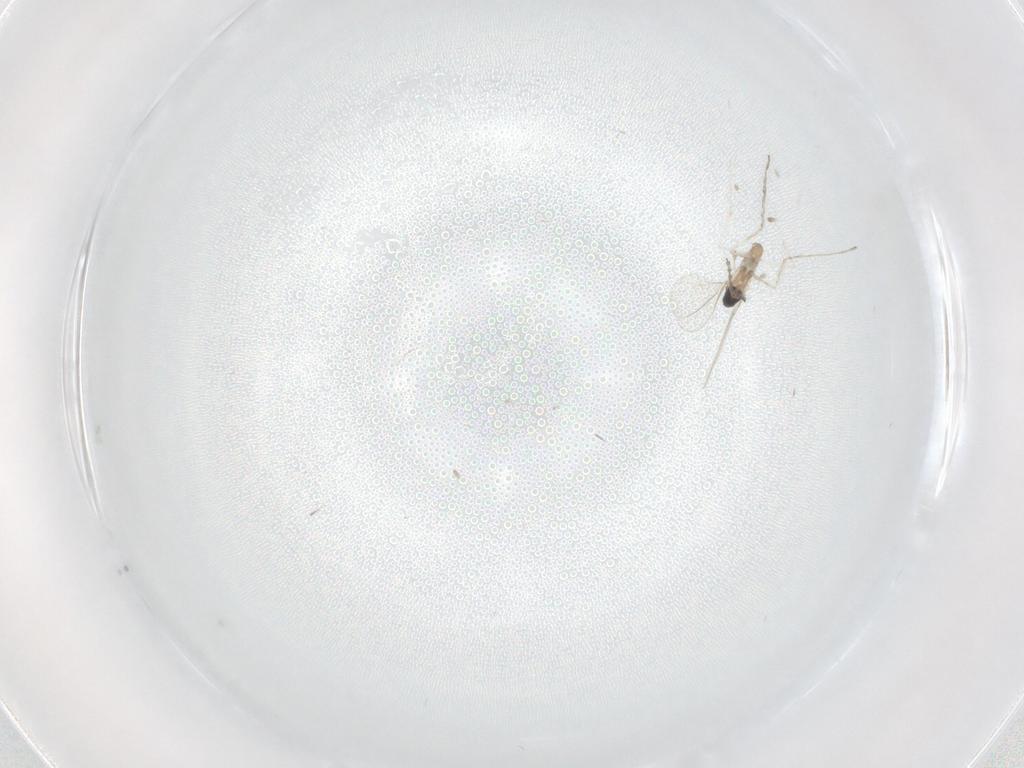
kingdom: Animalia
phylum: Arthropoda
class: Insecta
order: Diptera
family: Cecidomyiidae
